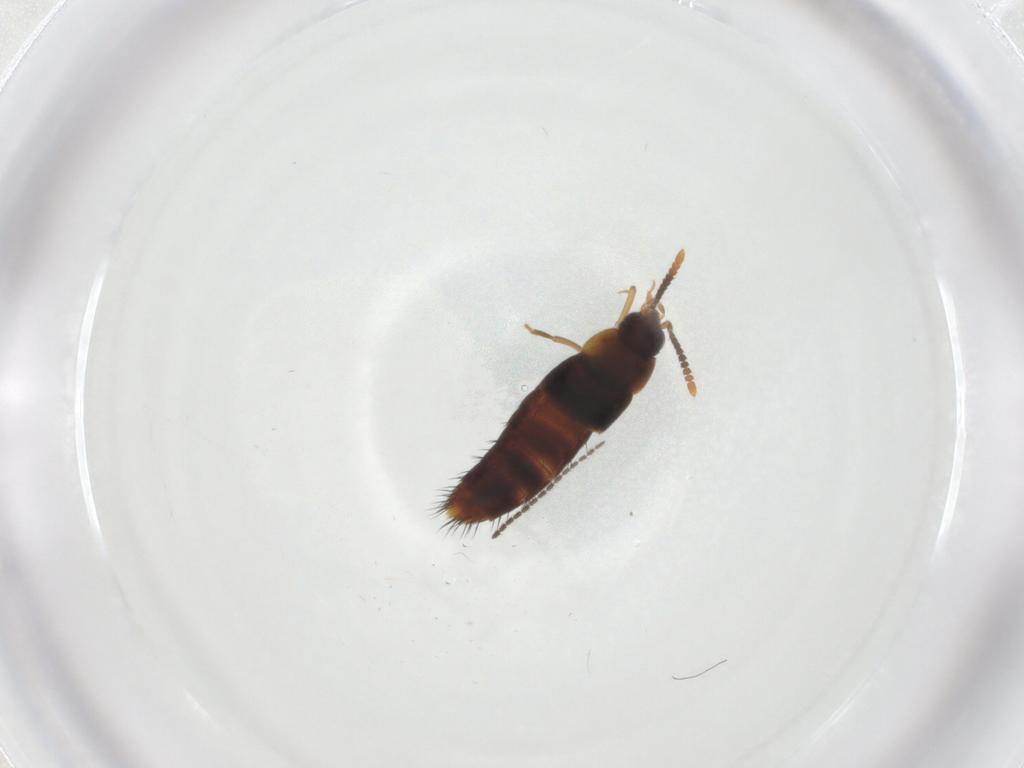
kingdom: Animalia
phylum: Arthropoda
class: Insecta
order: Coleoptera
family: Staphylinidae
